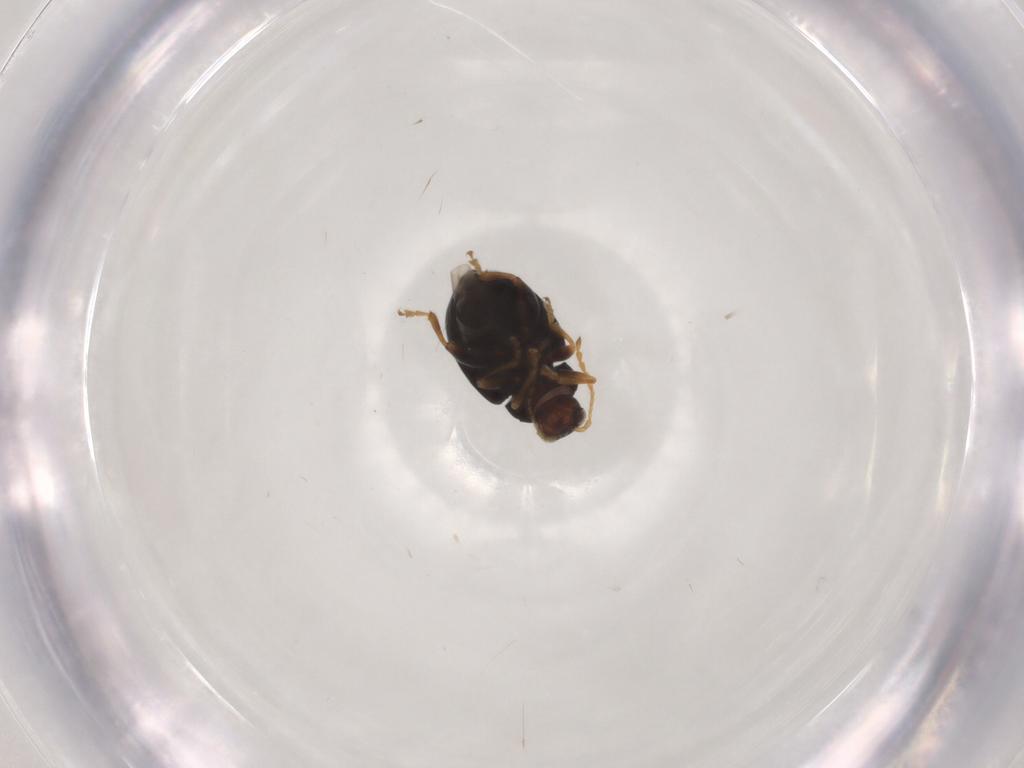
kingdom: Animalia
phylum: Arthropoda
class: Insecta
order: Coleoptera
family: Chrysomelidae
